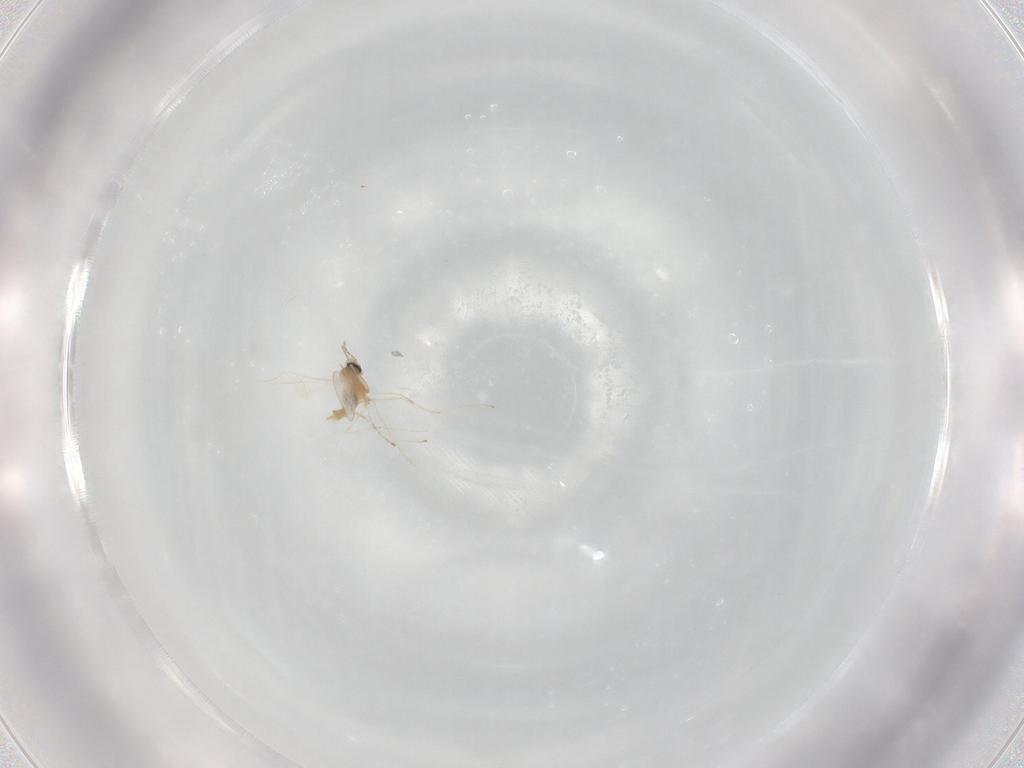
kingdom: Animalia
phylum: Arthropoda
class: Insecta
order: Diptera
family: Cecidomyiidae
